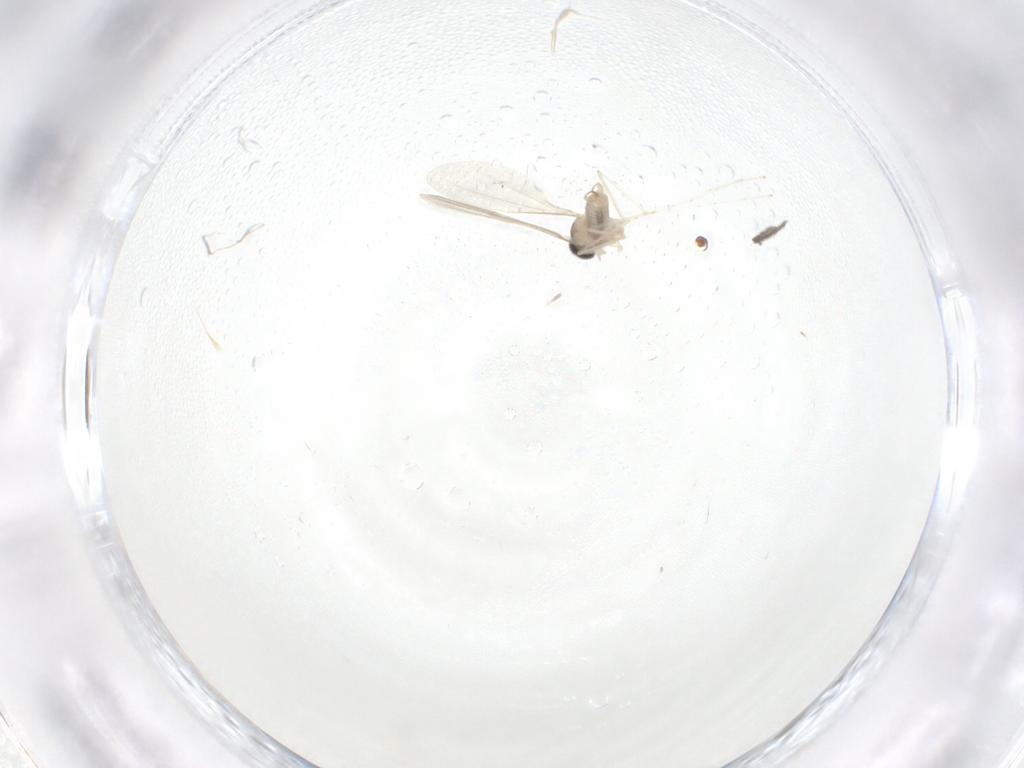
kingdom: Animalia
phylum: Arthropoda
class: Insecta
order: Diptera
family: Cecidomyiidae
